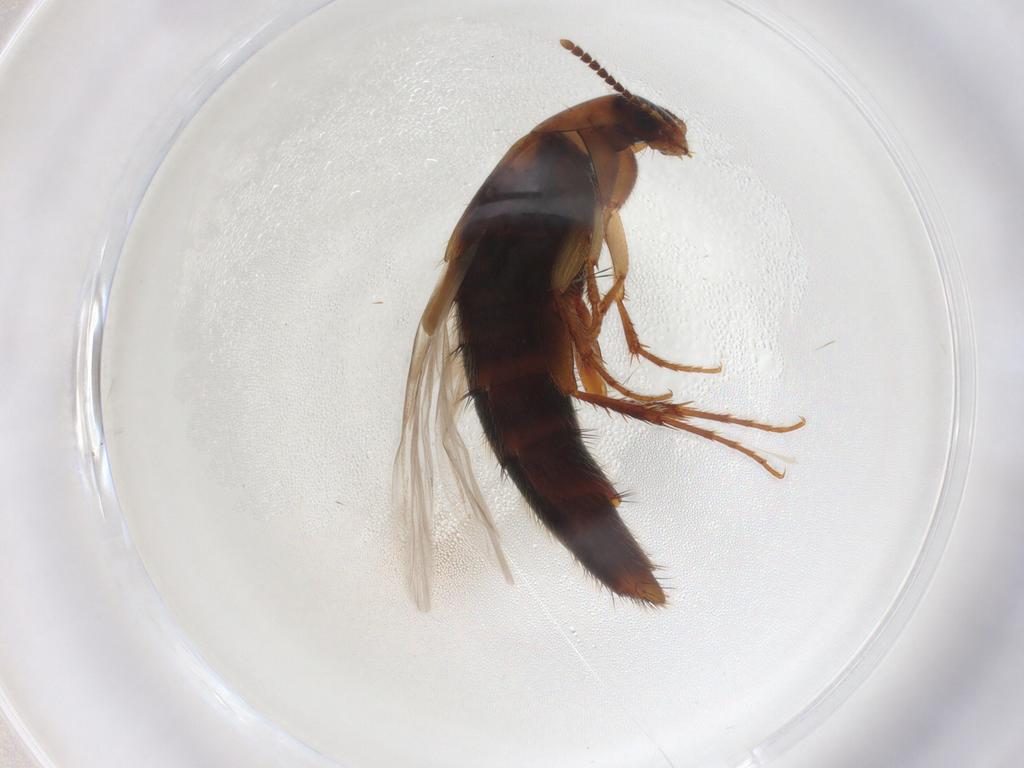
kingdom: Animalia
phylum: Arthropoda
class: Insecta
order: Coleoptera
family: Staphylinidae
